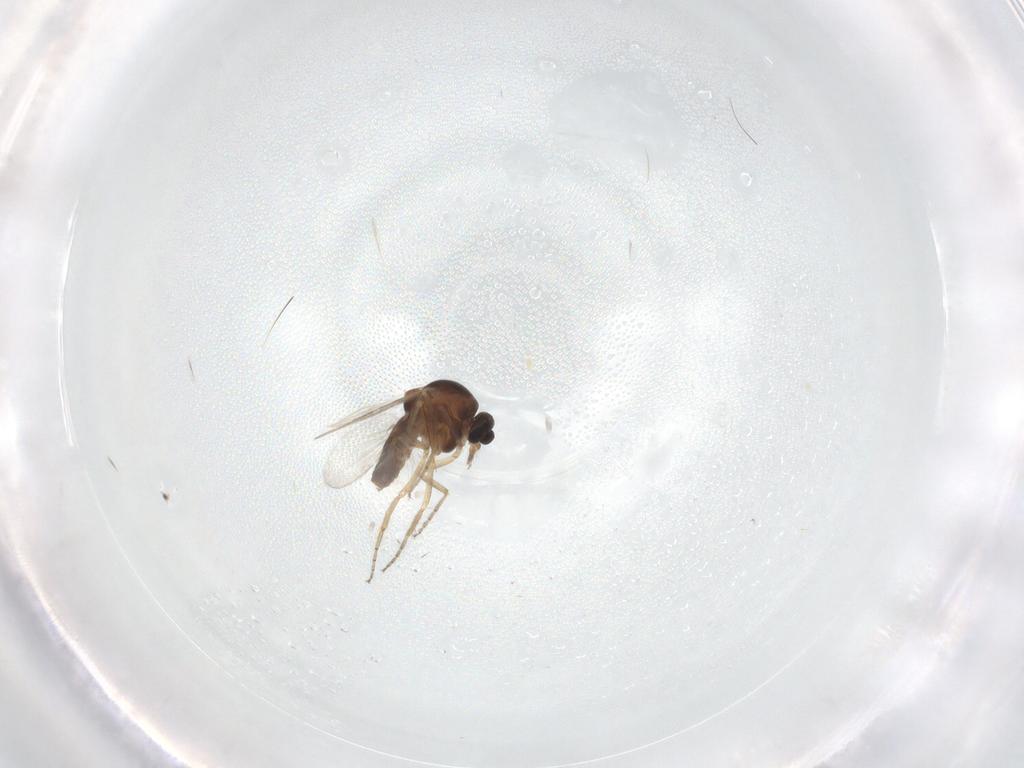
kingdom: Animalia
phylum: Arthropoda
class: Insecta
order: Diptera
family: Ceratopogonidae
